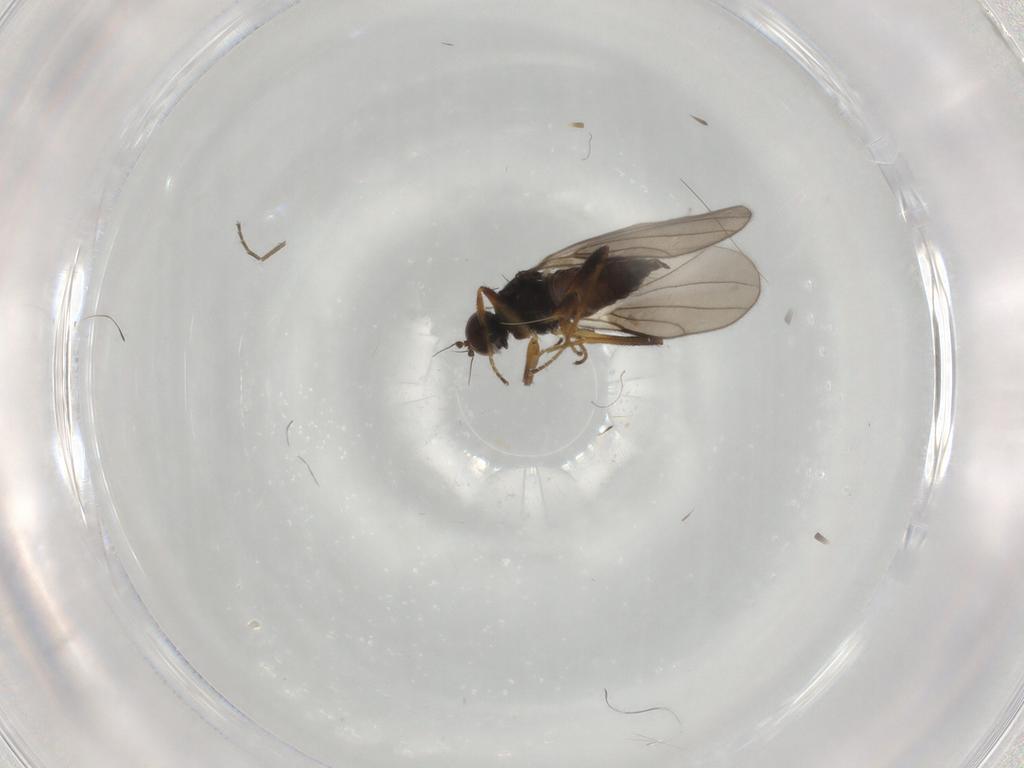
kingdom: Animalia
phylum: Arthropoda
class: Insecta
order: Diptera
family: Hybotidae
